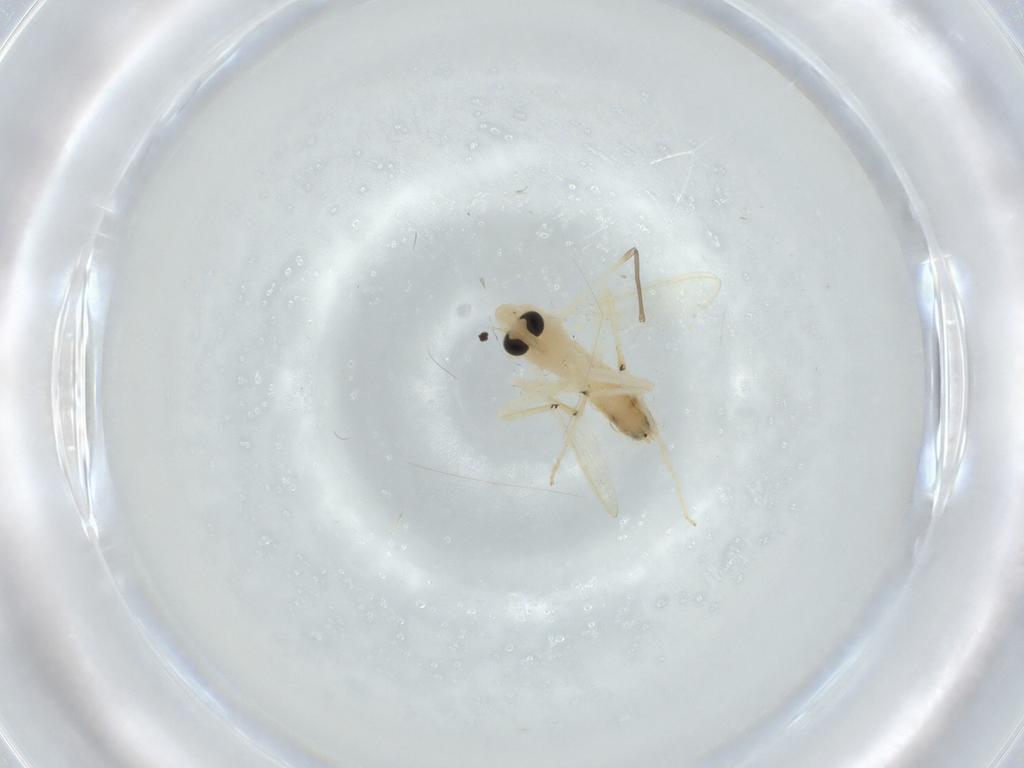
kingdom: Animalia
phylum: Arthropoda
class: Insecta
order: Diptera
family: Chironomidae
